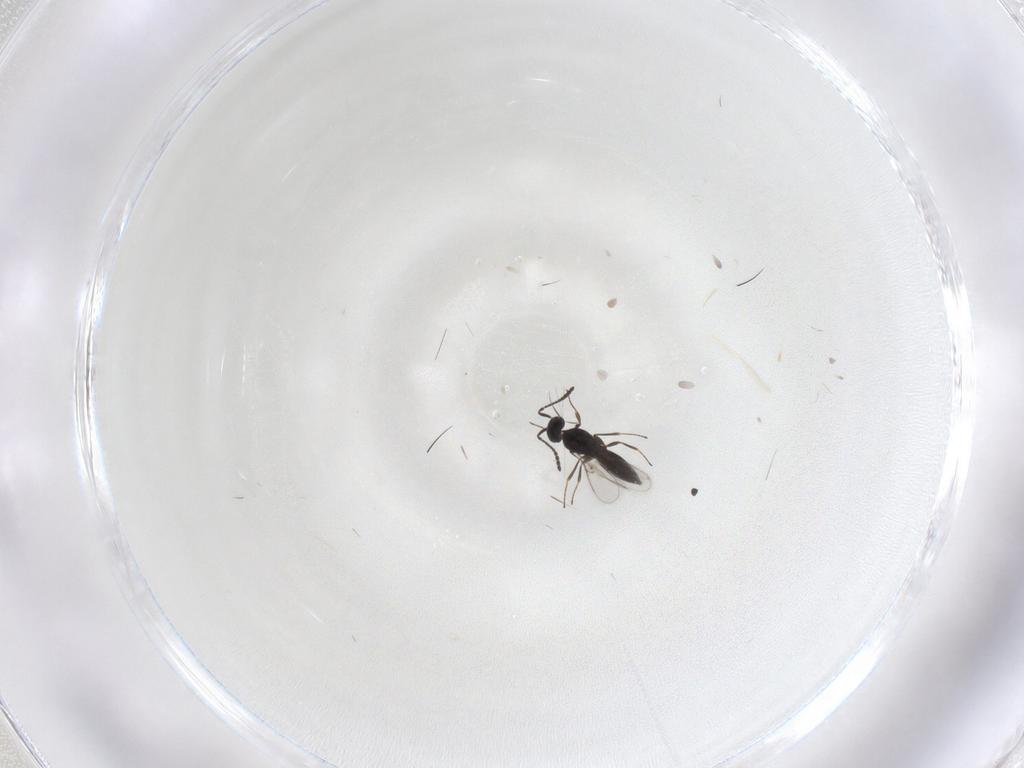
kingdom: Animalia
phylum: Arthropoda
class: Insecta
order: Hymenoptera
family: Scelionidae
